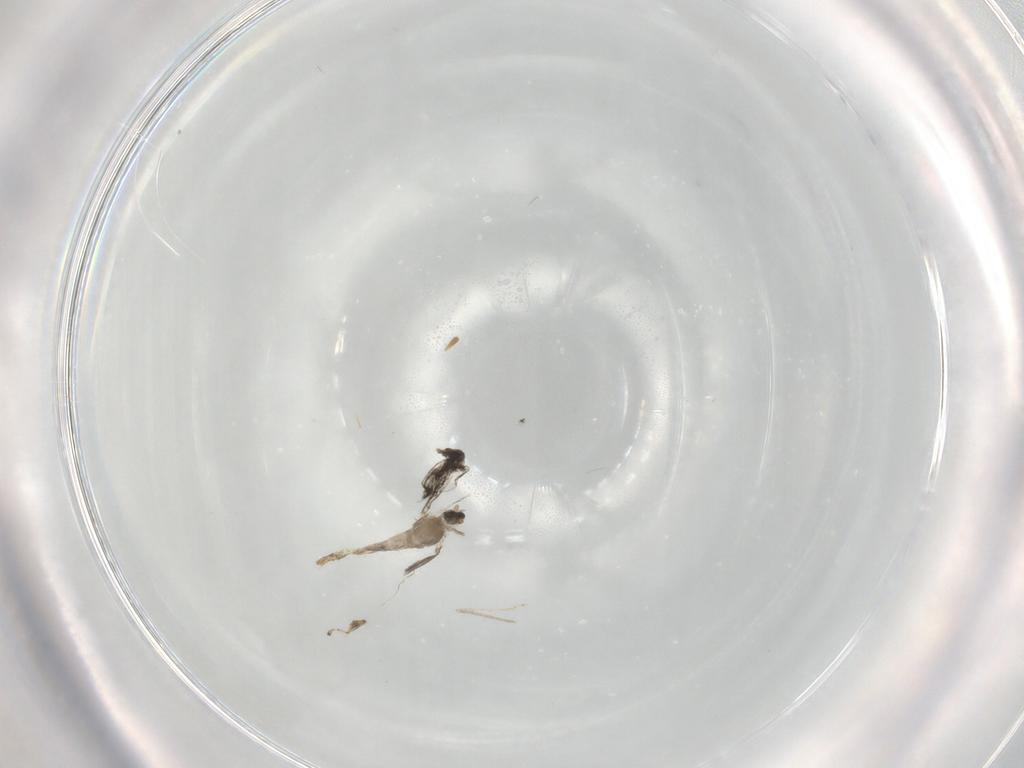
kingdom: Animalia
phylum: Arthropoda
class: Insecta
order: Diptera
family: Cecidomyiidae
